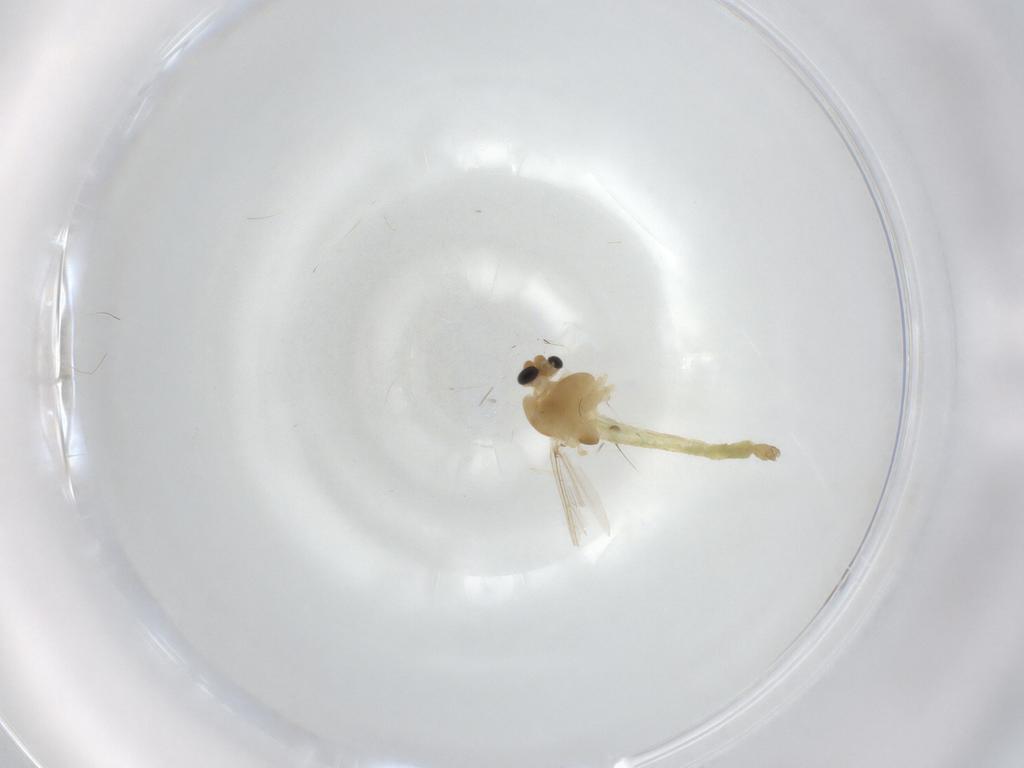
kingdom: Animalia
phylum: Arthropoda
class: Insecta
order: Diptera
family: Chironomidae
